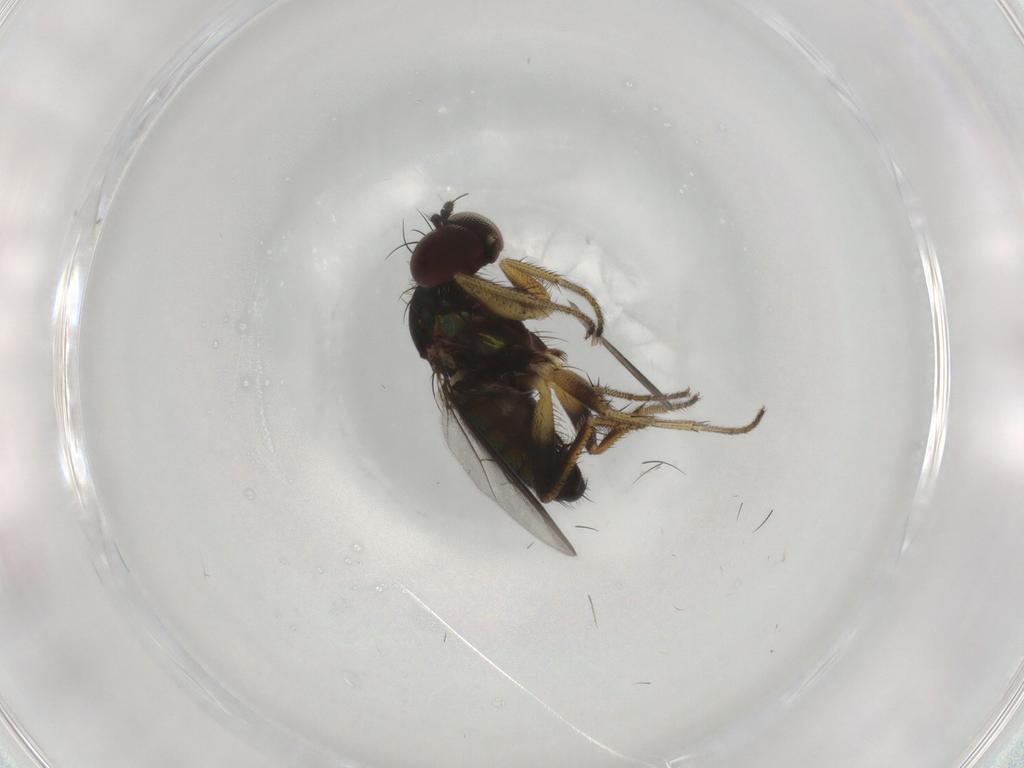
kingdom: Animalia
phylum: Arthropoda
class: Insecta
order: Diptera
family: Dolichopodidae
